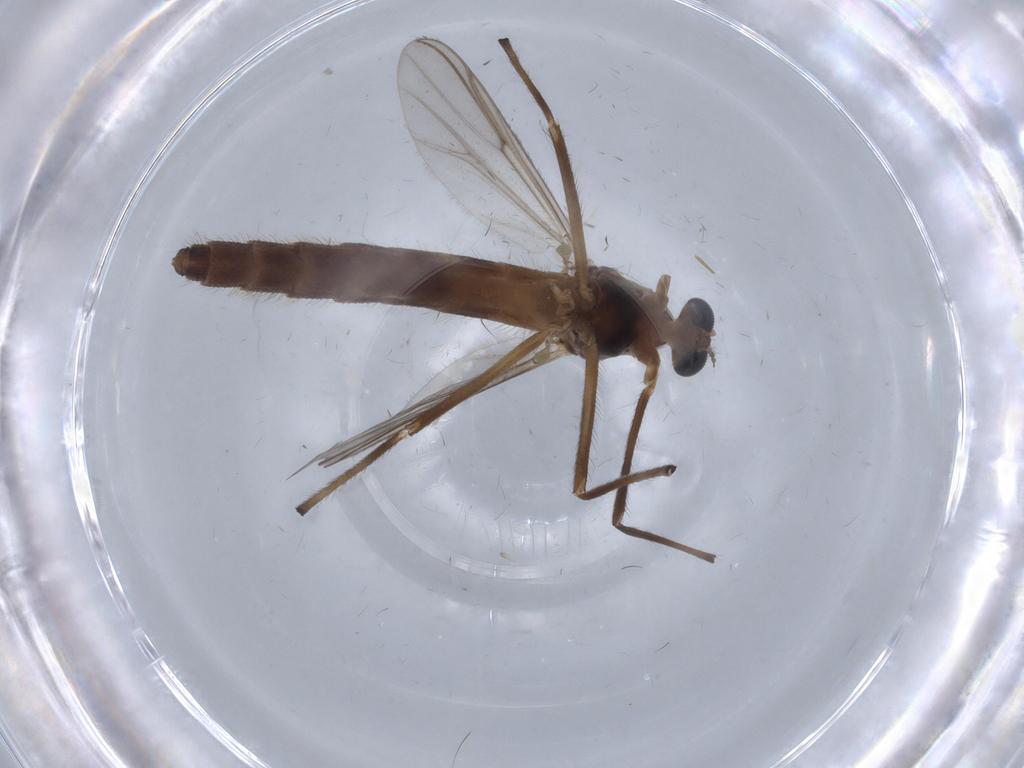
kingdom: Animalia
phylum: Arthropoda
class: Insecta
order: Diptera
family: Chironomidae
